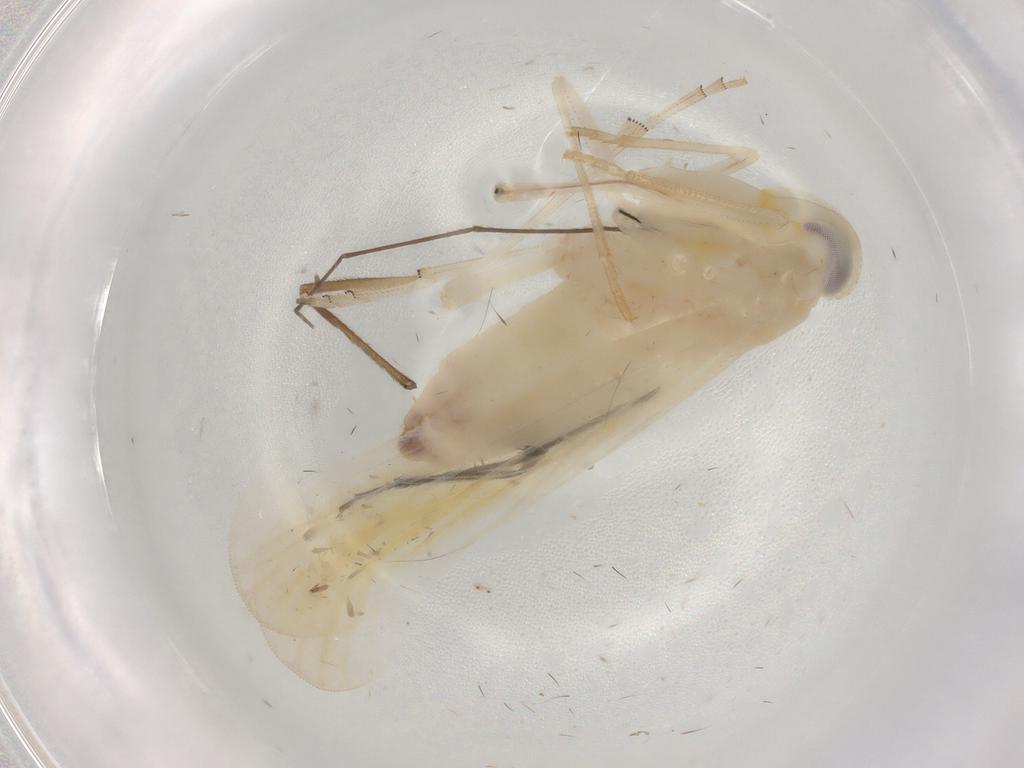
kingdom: Animalia
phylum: Arthropoda
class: Insecta
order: Hemiptera
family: Derbidae
